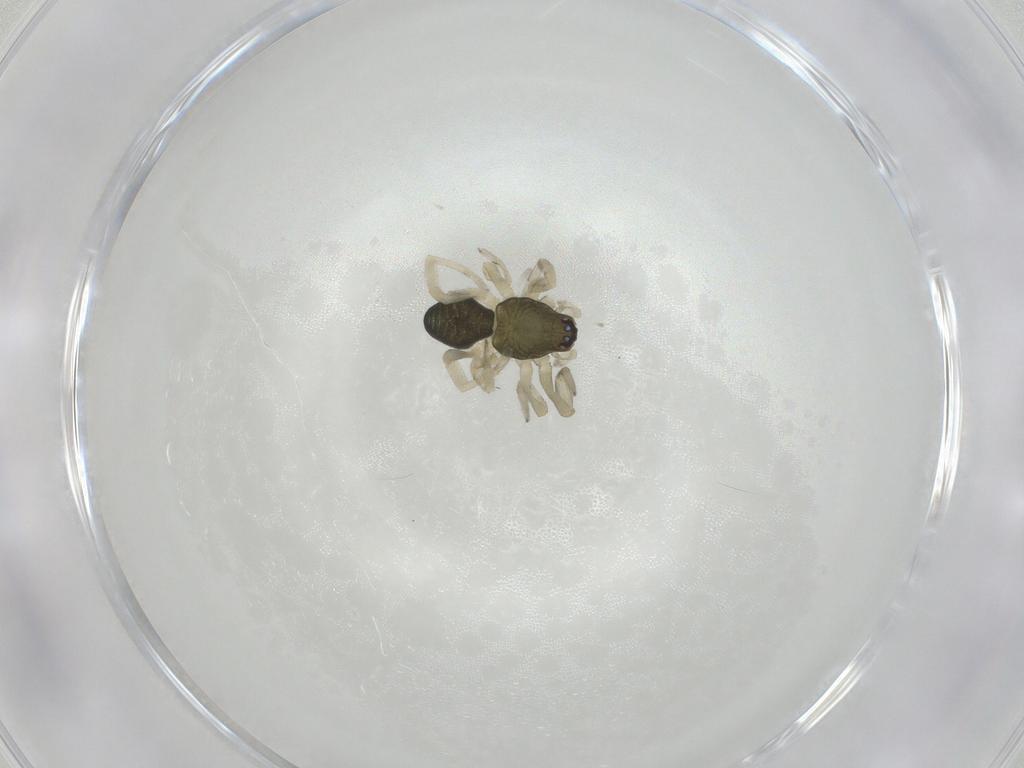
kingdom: Animalia
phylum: Arthropoda
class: Arachnida
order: Araneae
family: Trachelidae
